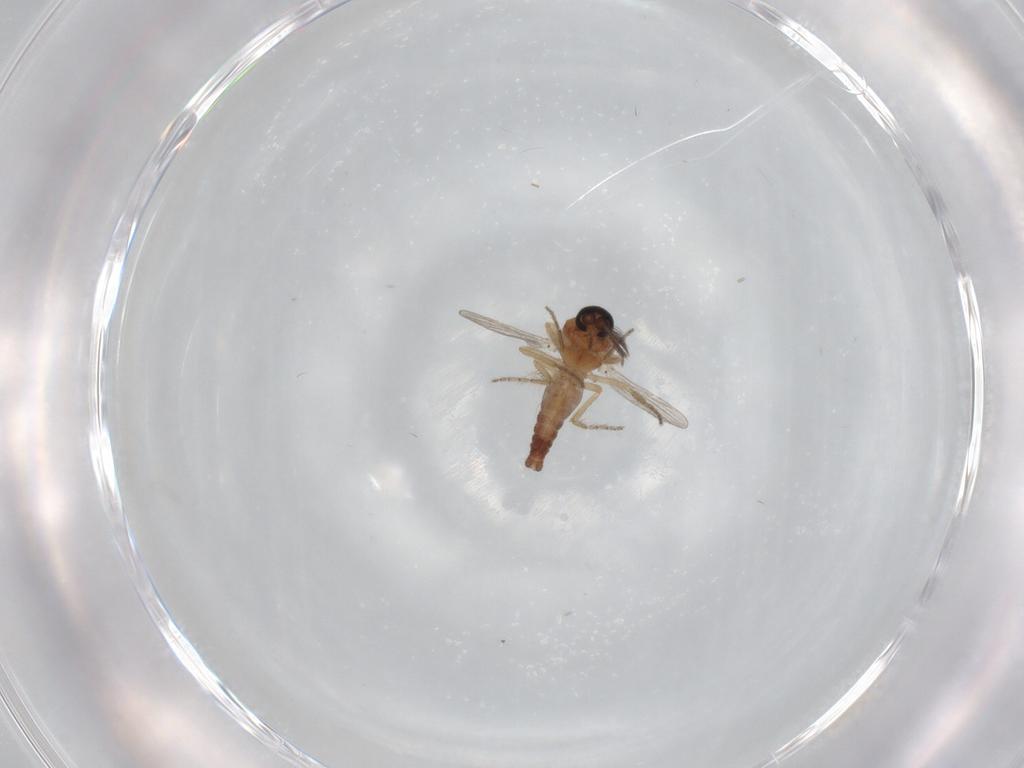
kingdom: Animalia
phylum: Arthropoda
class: Insecta
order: Diptera
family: Ceratopogonidae
